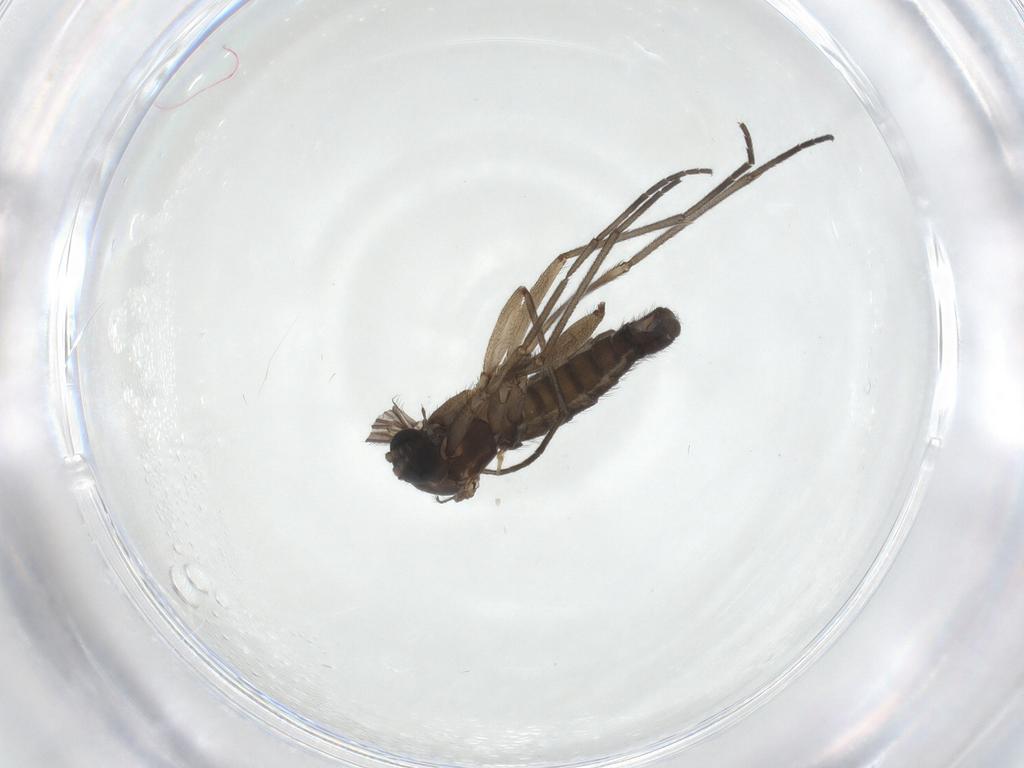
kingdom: Animalia
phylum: Arthropoda
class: Insecta
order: Diptera
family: Sciaridae
